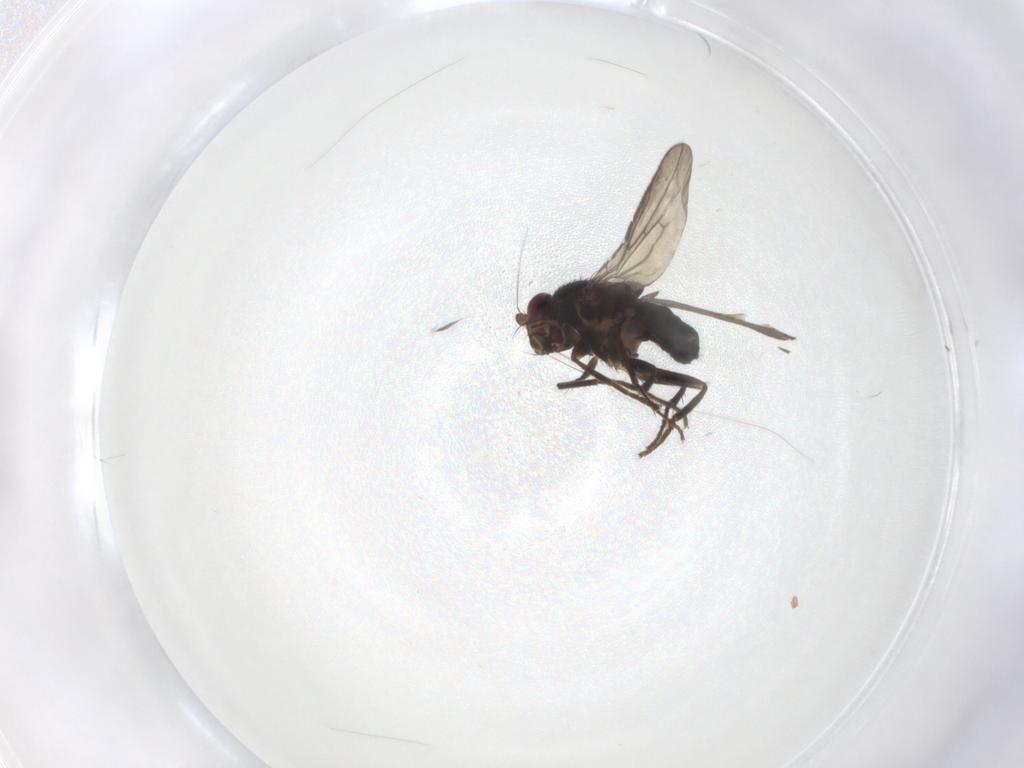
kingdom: Animalia
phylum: Arthropoda
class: Insecta
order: Diptera
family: Sphaeroceridae
